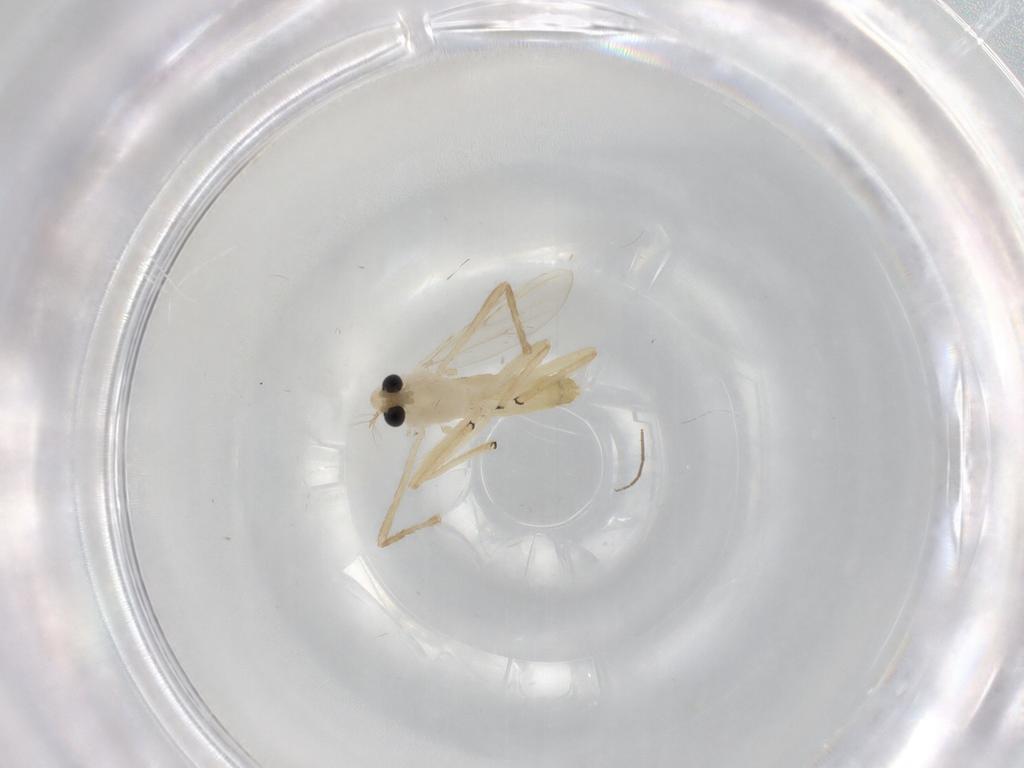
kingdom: Animalia
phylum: Arthropoda
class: Insecta
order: Diptera
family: Chironomidae
